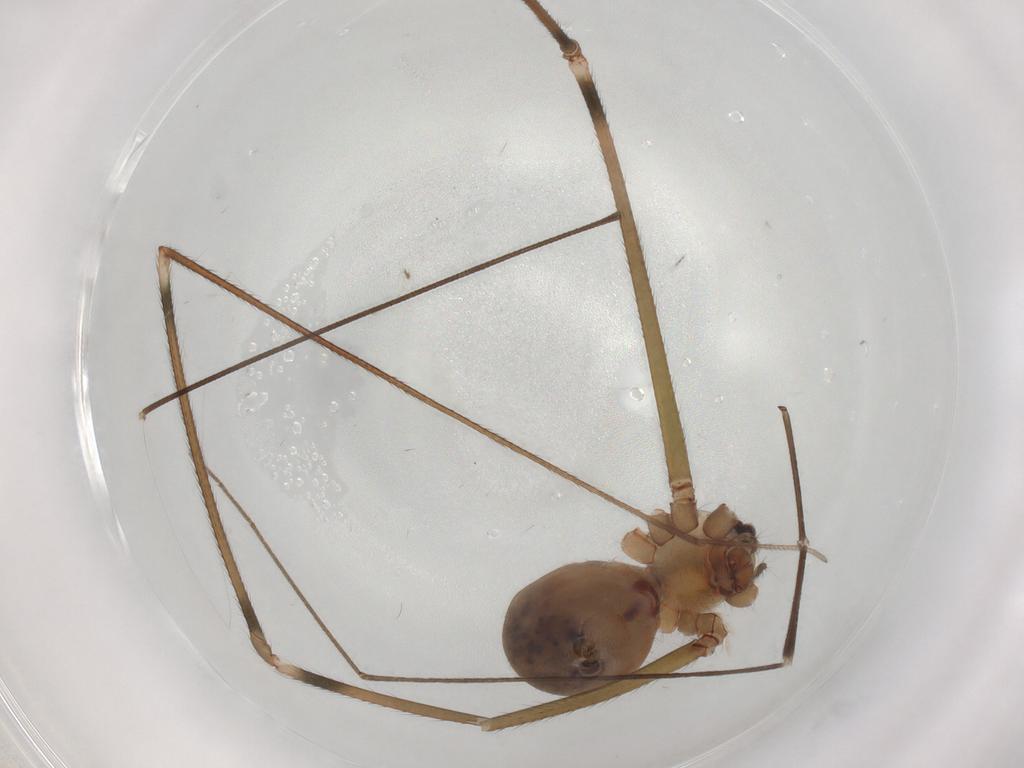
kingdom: Animalia
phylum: Arthropoda
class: Arachnida
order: Araneae
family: Pholcidae
